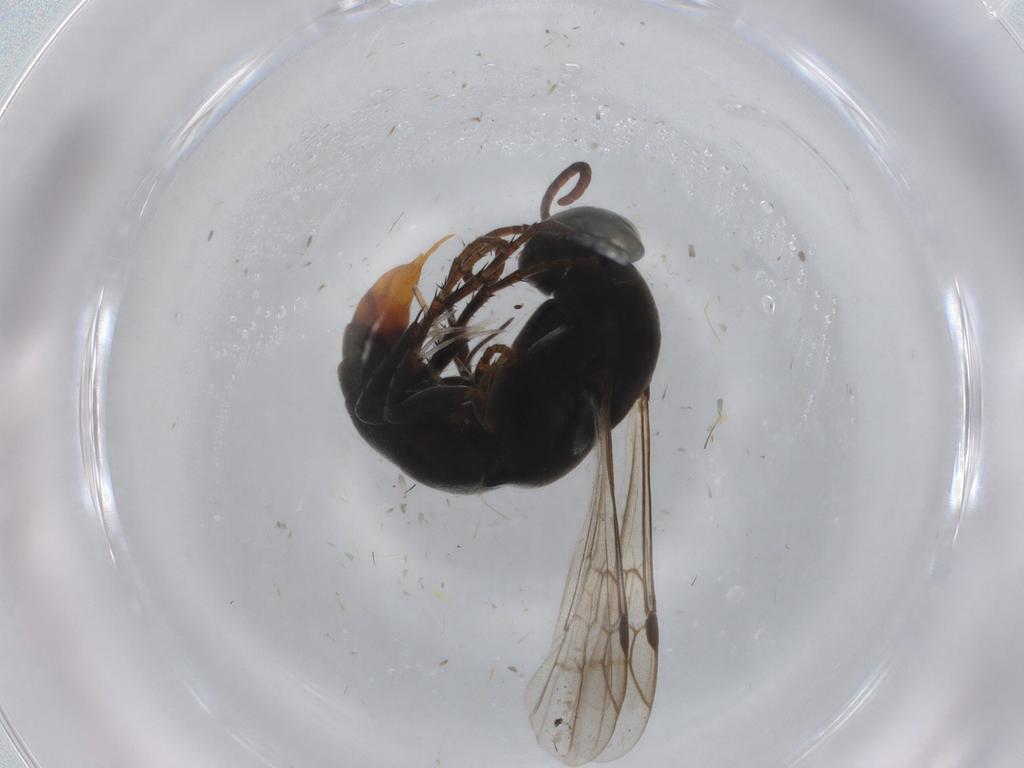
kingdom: Animalia
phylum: Arthropoda
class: Insecta
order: Hymenoptera
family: Pompilidae
